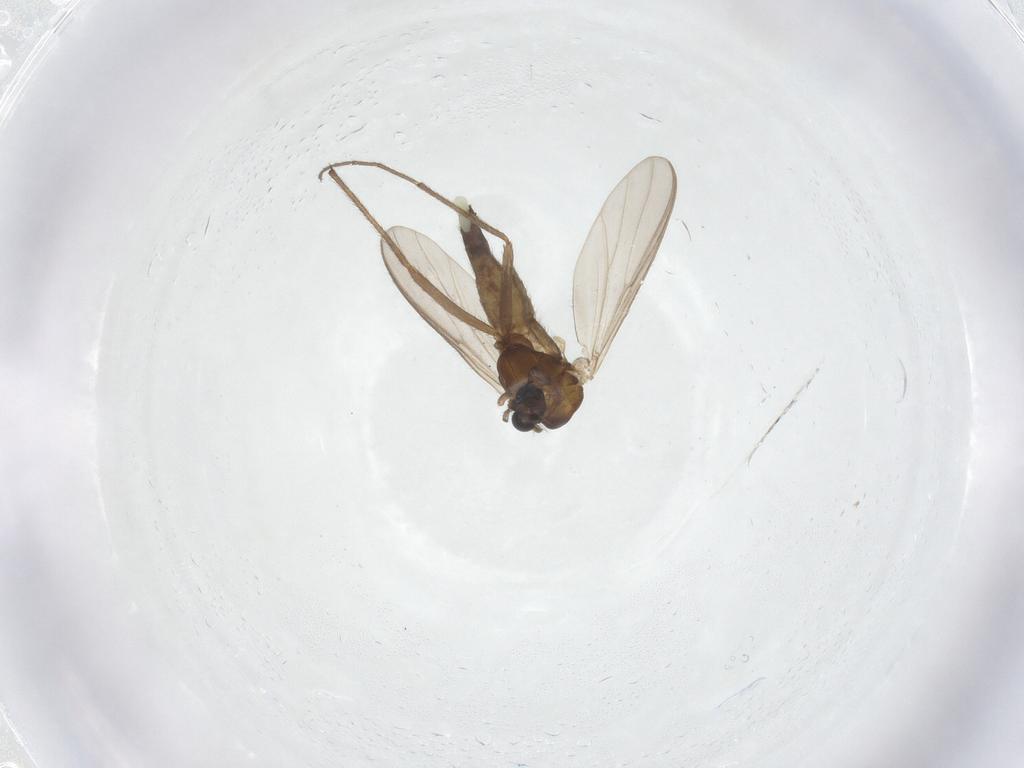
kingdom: Animalia
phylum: Arthropoda
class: Insecta
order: Diptera
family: Chironomidae
